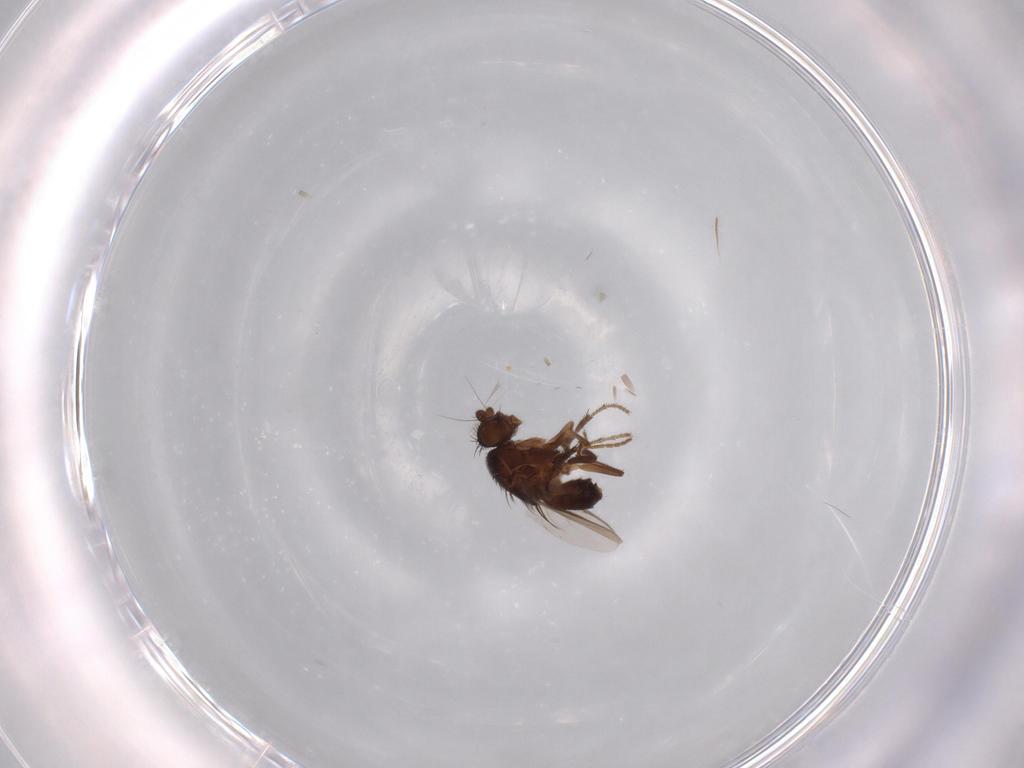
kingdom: Animalia
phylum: Arthropoda
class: Insecta
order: Diptera
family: Sphaeroceridae
